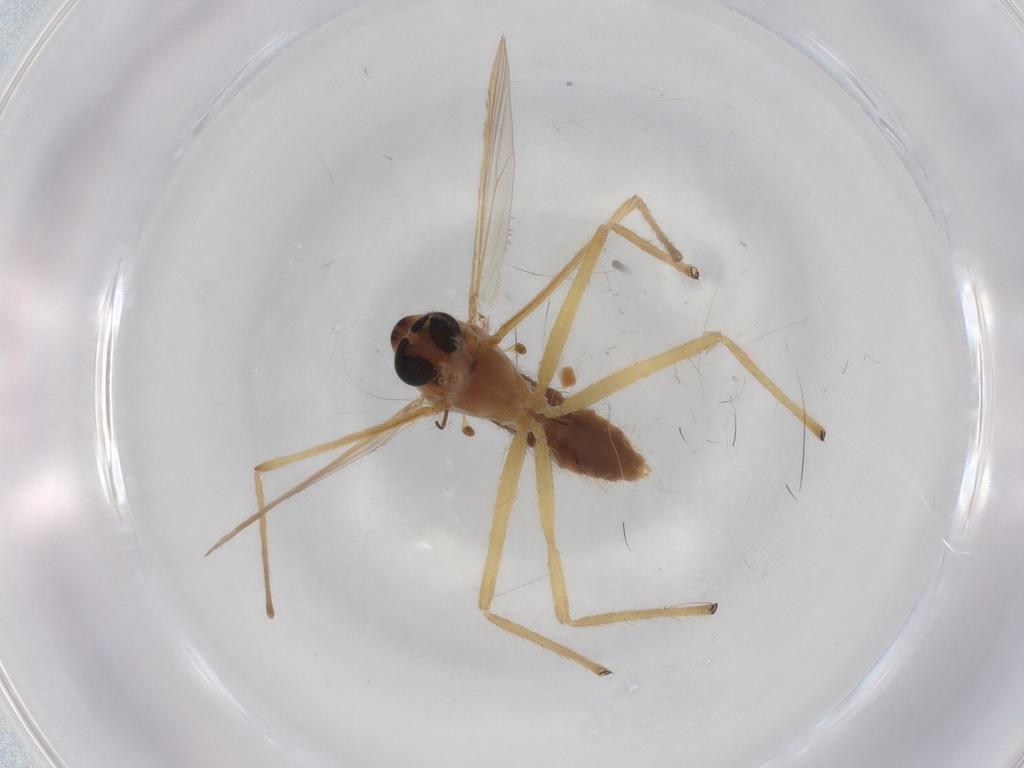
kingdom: Animalia
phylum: Arthropoda
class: Insecta
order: Diptera
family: Chironomidae
